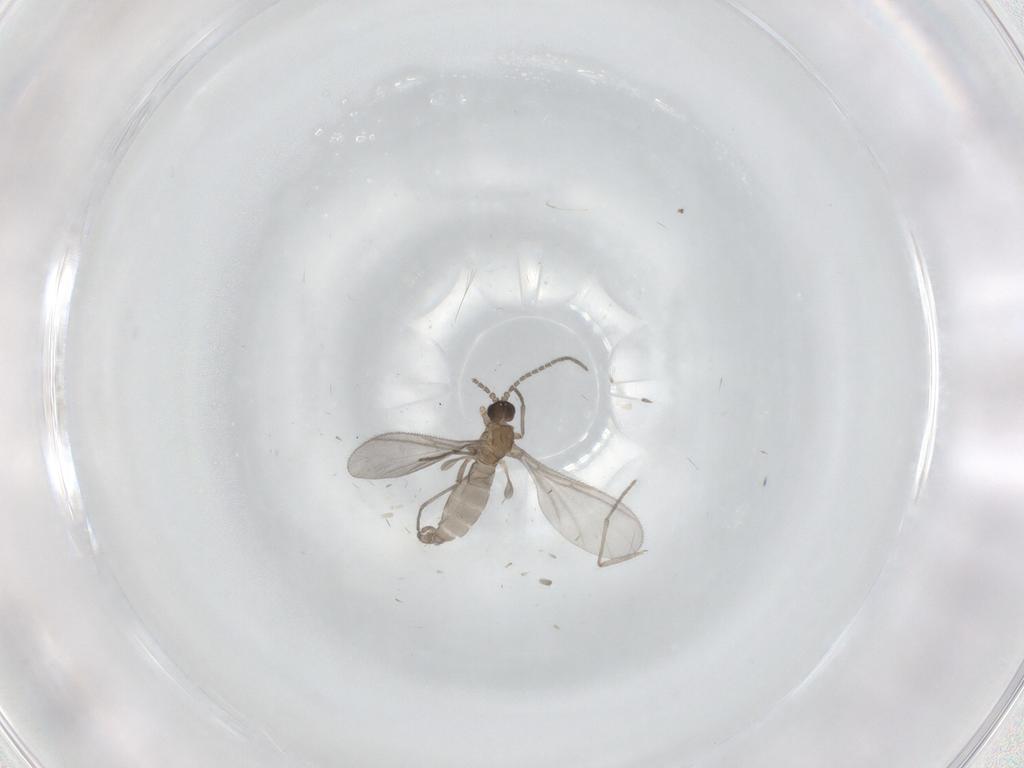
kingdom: Animalia
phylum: Arthropoda
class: Insecta
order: Diptera
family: Sciaridae
